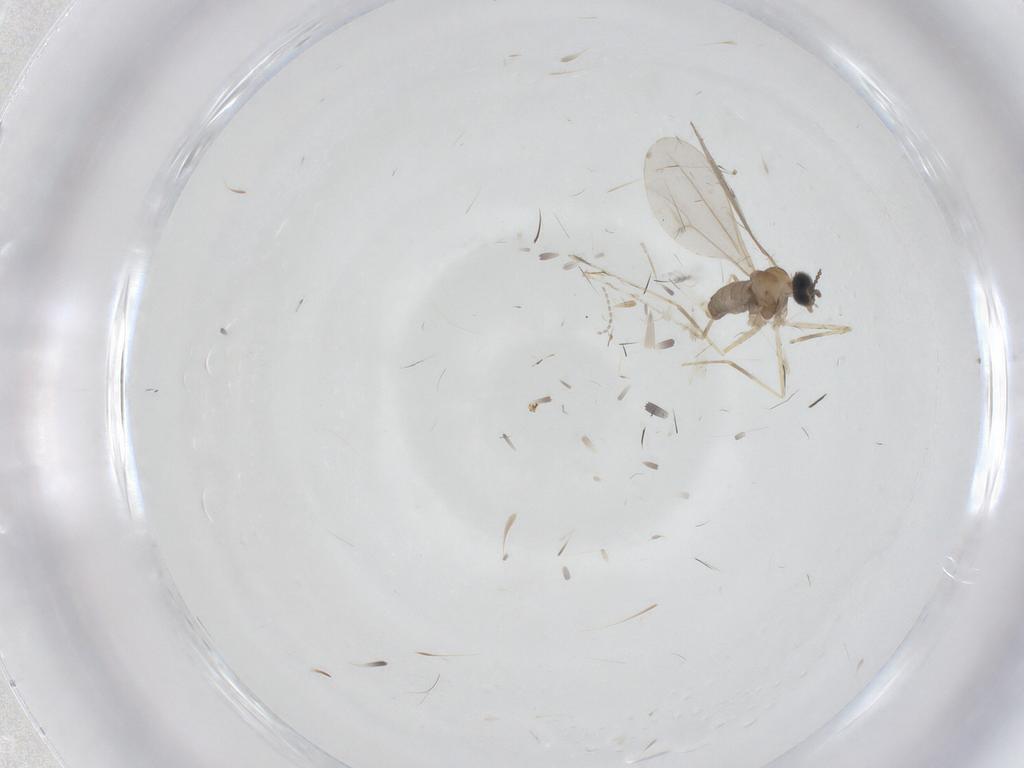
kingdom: Animalia
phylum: Arthropoda
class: Insecta
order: Diptera
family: Cecidomyiidae
